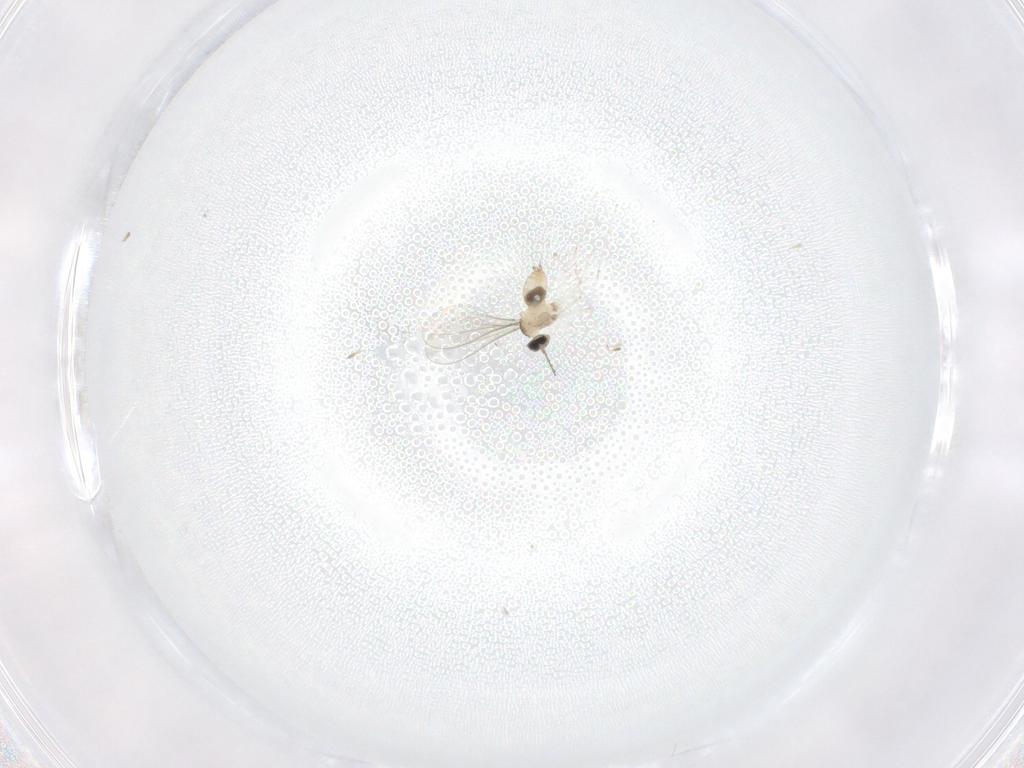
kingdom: Animalia
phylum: Arthropoda
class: Insecta
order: Diptera
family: Cecidomyiidae
